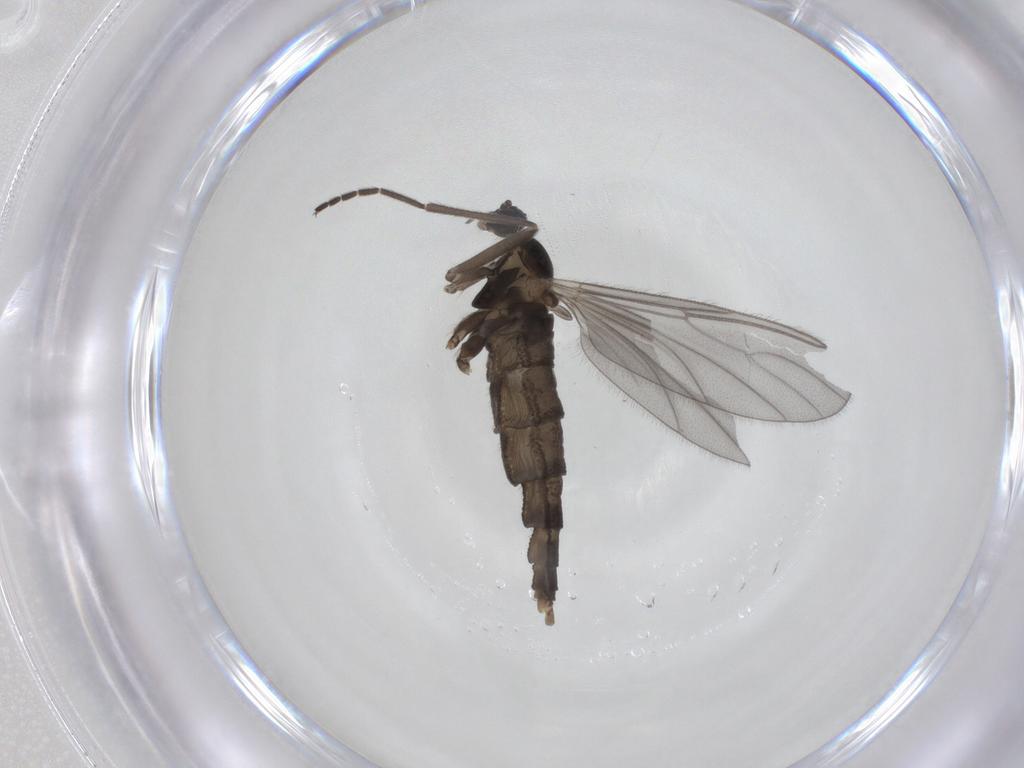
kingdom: Animalia
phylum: Arthropoda
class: Insecta
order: Diptera
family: Cecidomyiidae
